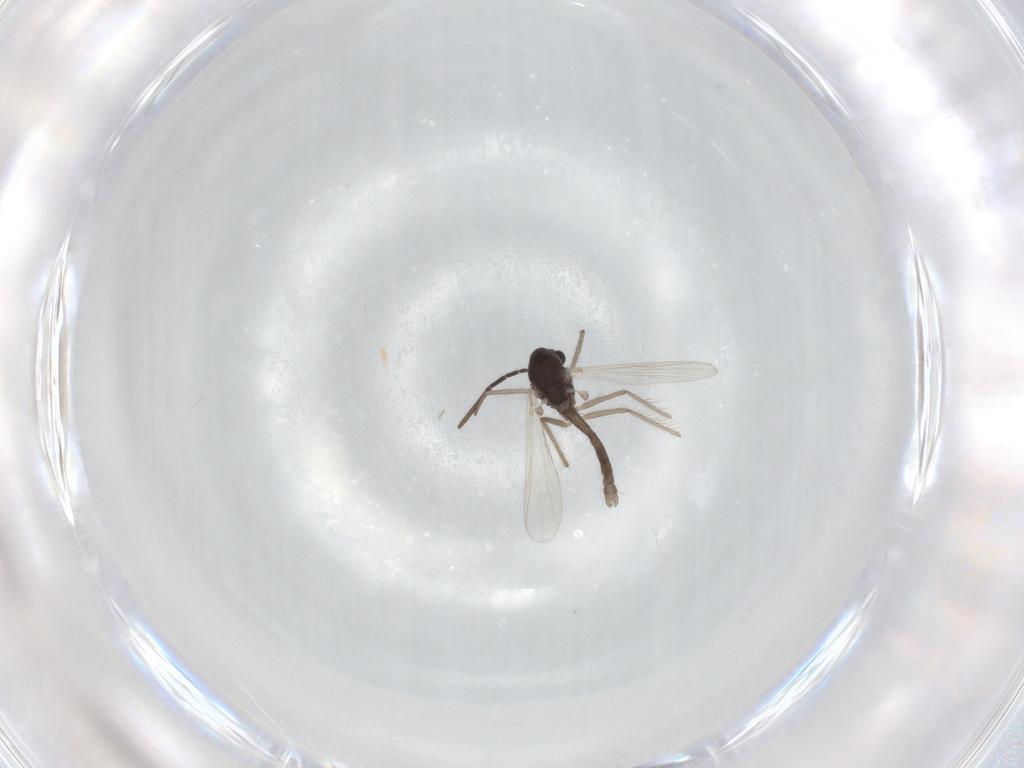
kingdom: Animalia
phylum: Arthropoda
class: Insecta
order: Diptera
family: Chironomidae
